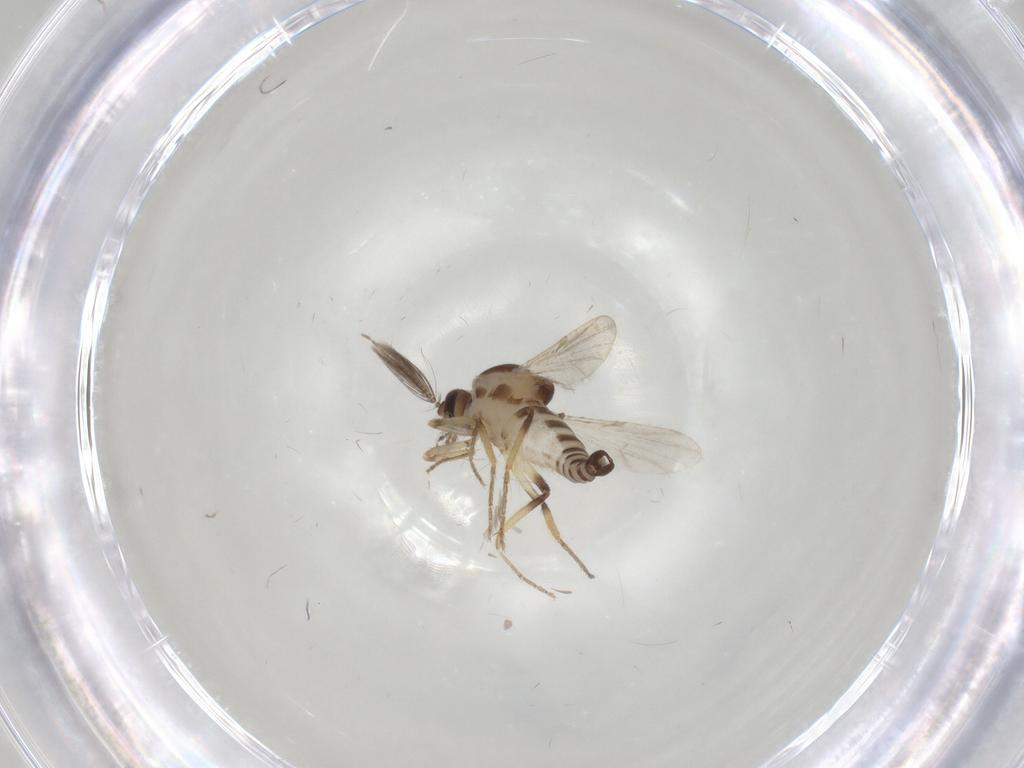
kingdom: Animalia
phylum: Arthropoda
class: Insecta
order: Diptera
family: Ceratopogonidae
